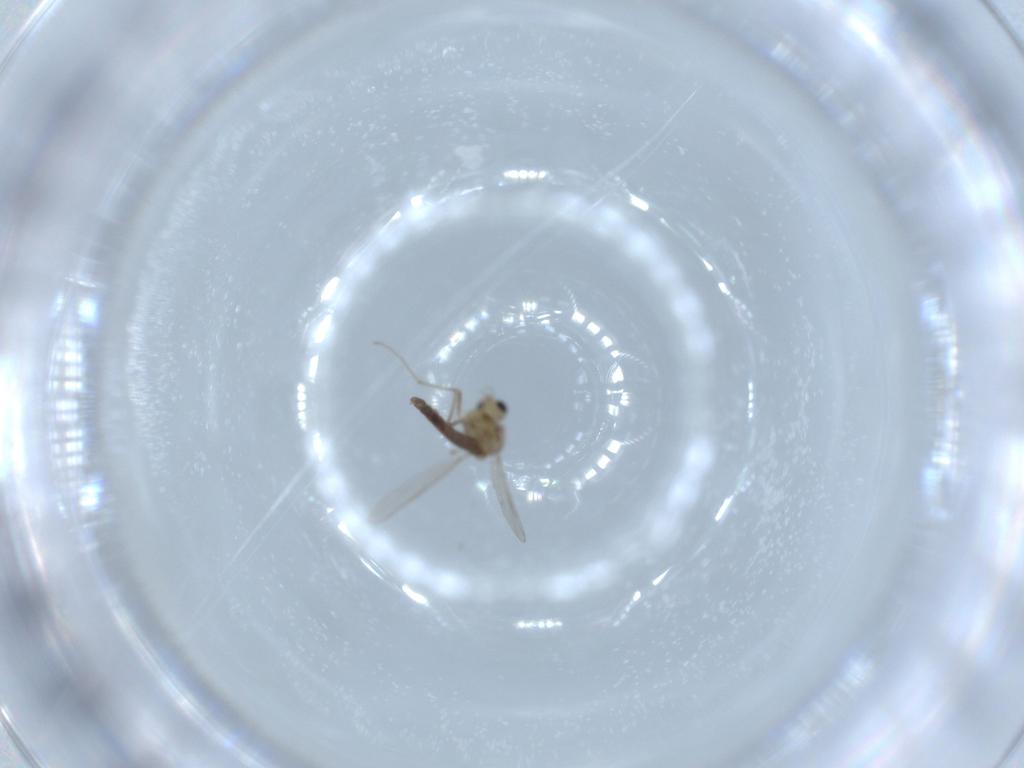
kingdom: Animalia
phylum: Arthropoda
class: Insecta
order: Diptera
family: Chironomidae
